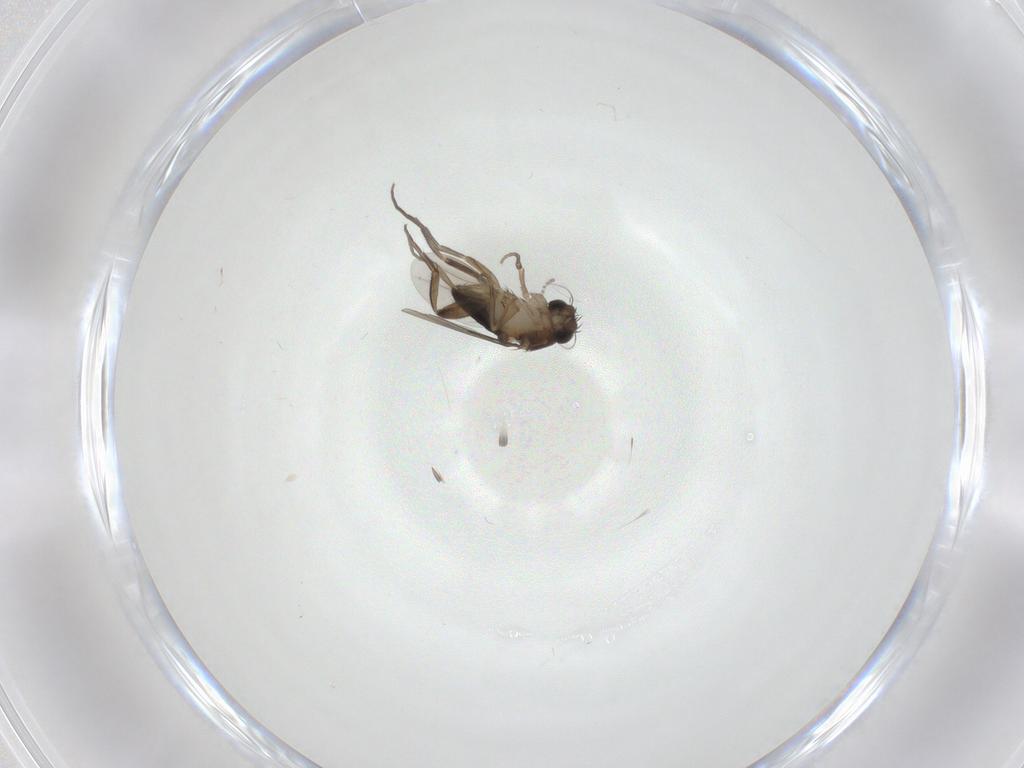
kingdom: Animalia
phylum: Arthropoda
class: Insecta
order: Diptera
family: Phoridae
